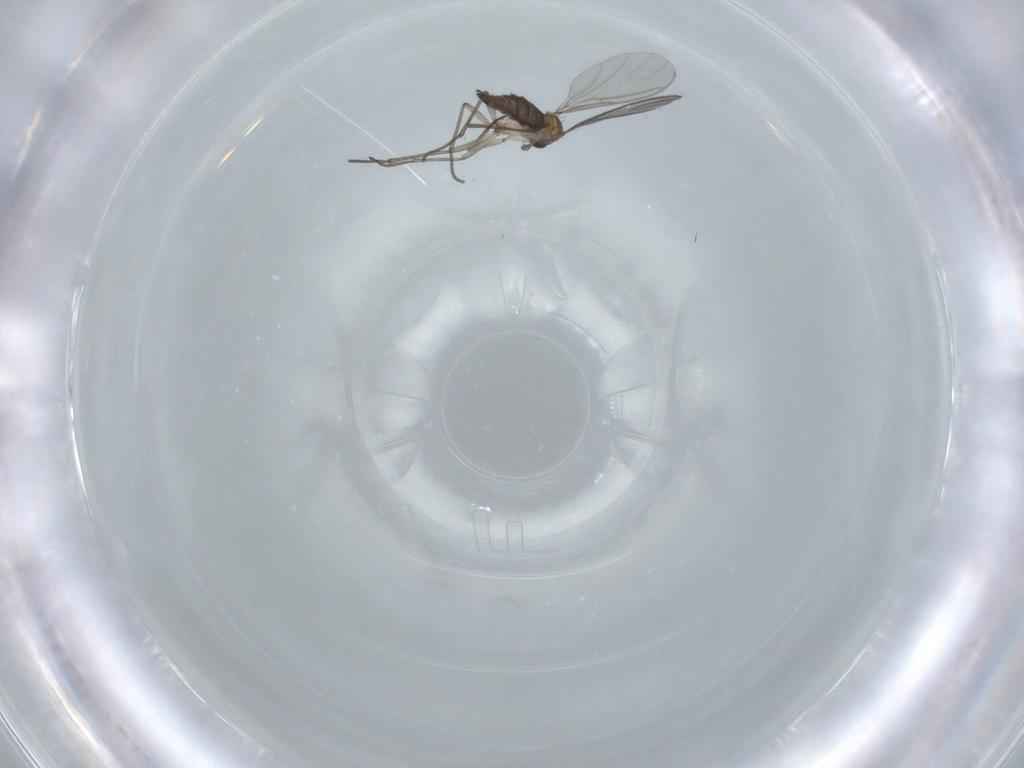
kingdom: Animalia
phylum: Arthropoda
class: Insecta
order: Diptera
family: Sciaridae
